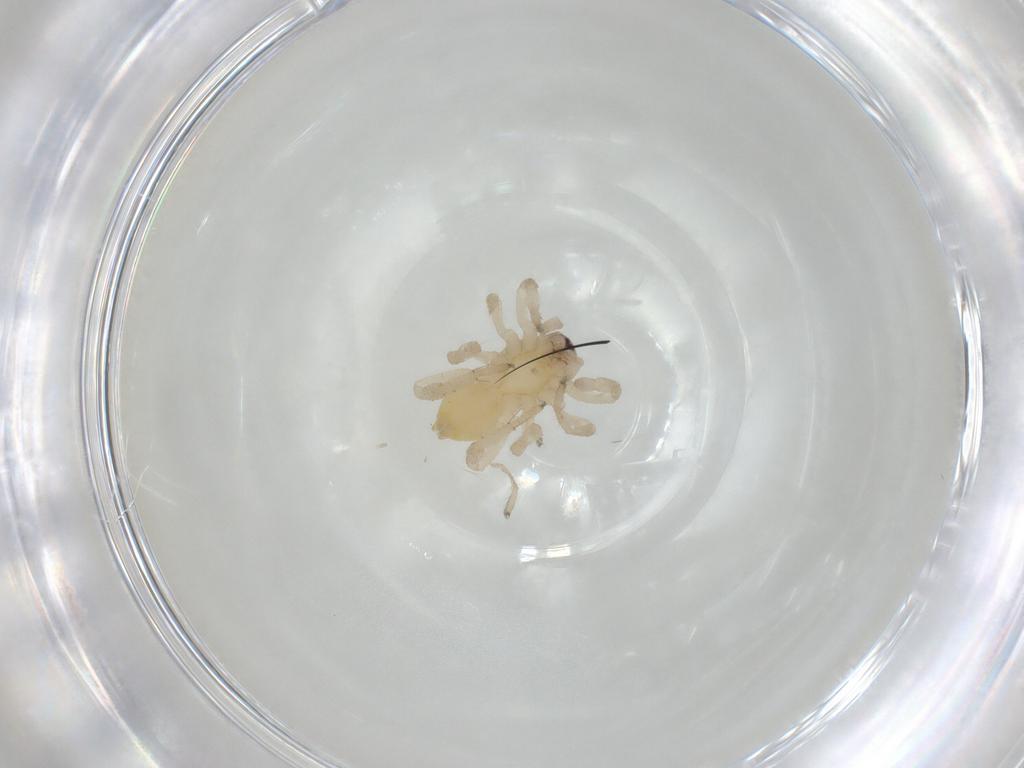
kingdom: Animalia
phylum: Arthropoda
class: Arachnida
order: Araneae
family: Clubionidae
